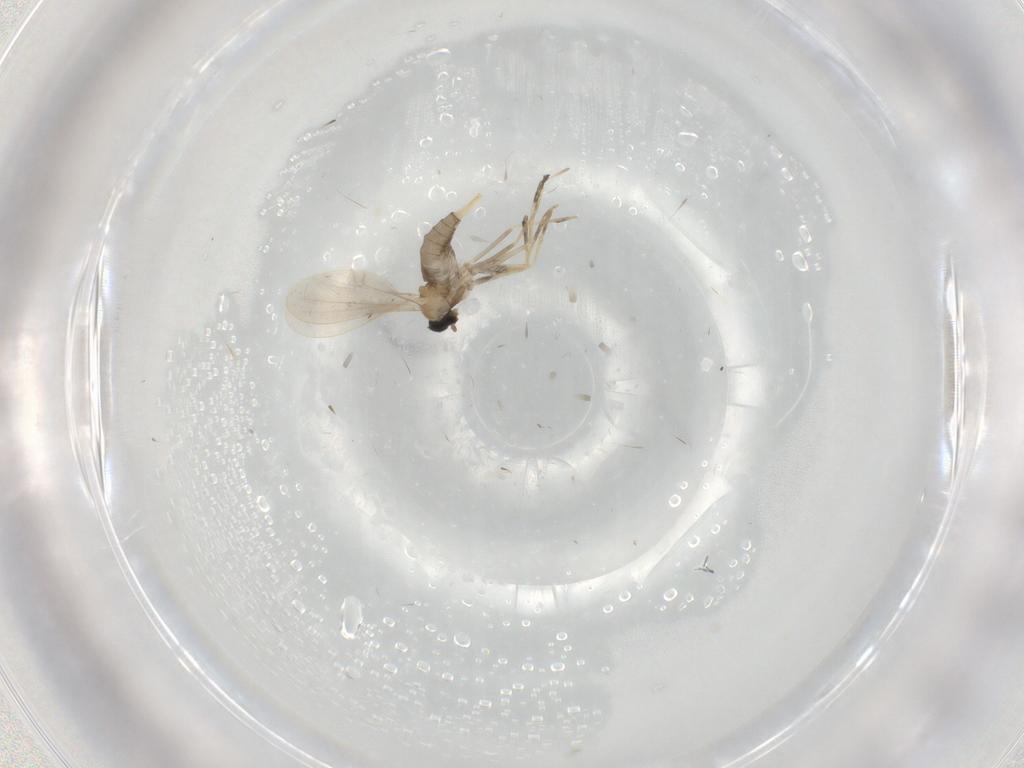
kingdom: Animalia
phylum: Arthropoda
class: Insecta
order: Diptera
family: Cecidomyiidae
